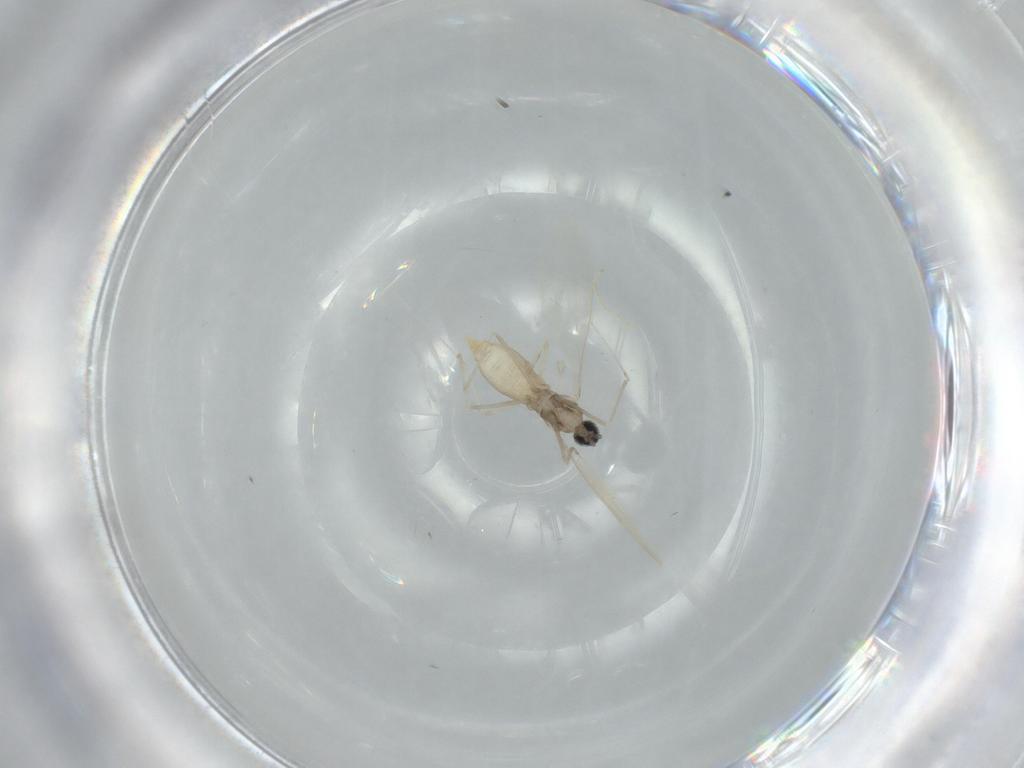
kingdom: Animalia
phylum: Arthropoda
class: Insecta
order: Diptera
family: Cecidomyiidae
